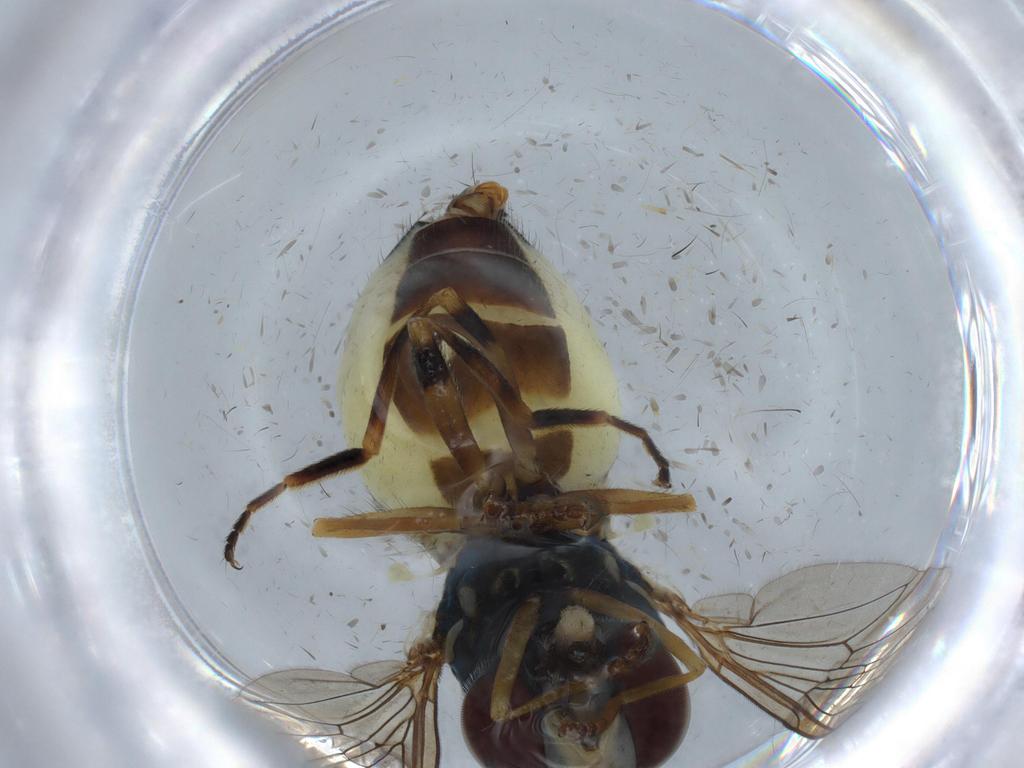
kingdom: Animalia
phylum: Arthropoda
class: Insecta
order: Diptera
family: Syrphidae
